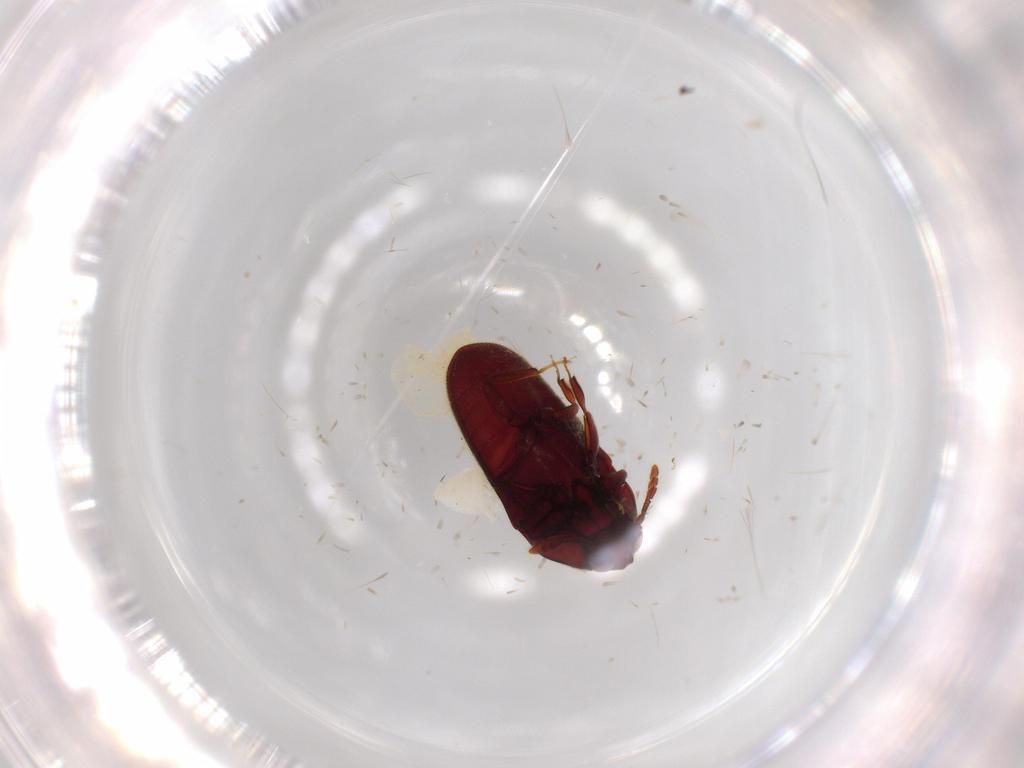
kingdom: Animalia
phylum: Arthropoda
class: Insecta
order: Coleoptera
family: Throscidae
